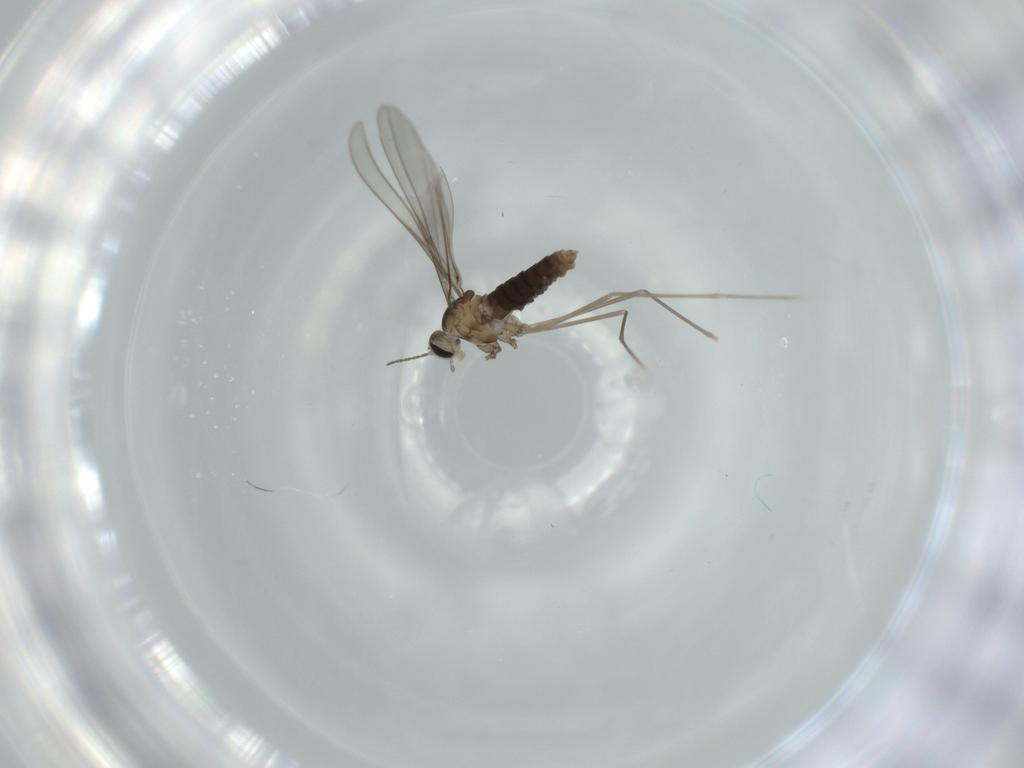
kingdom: Animalia
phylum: Arthropoda
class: Insecta
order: Diptera
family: Cecidomyiidae
